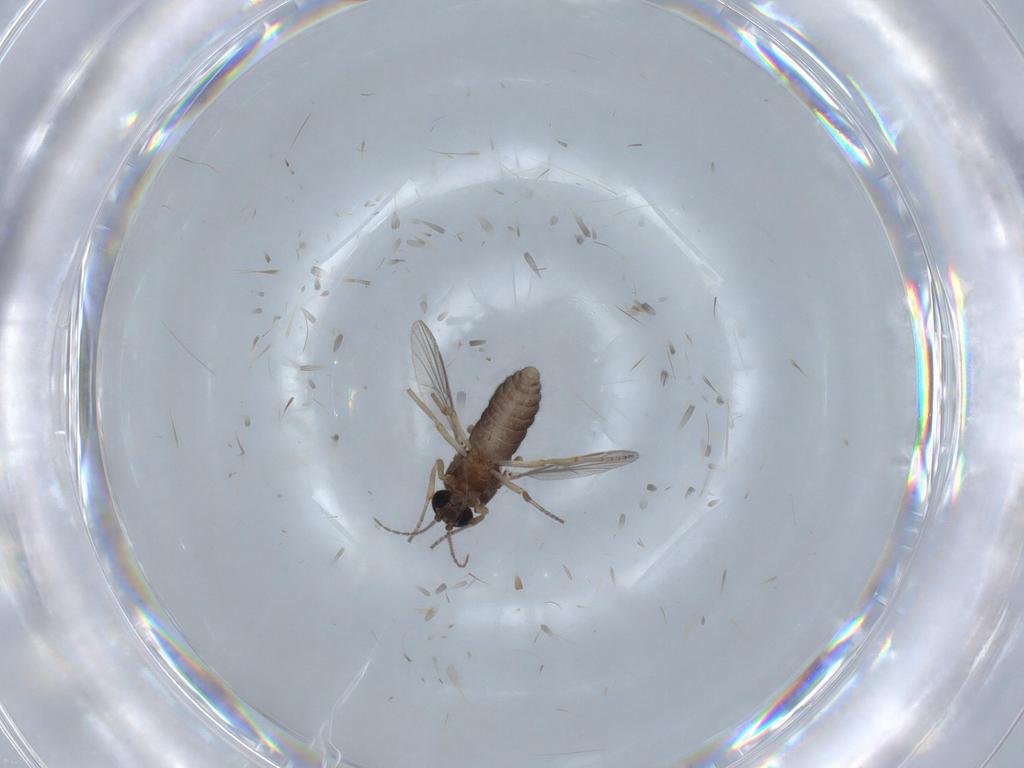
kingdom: Animalia
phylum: Arthropoda
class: Insecta
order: Diptera
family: Ceratopogonidae
